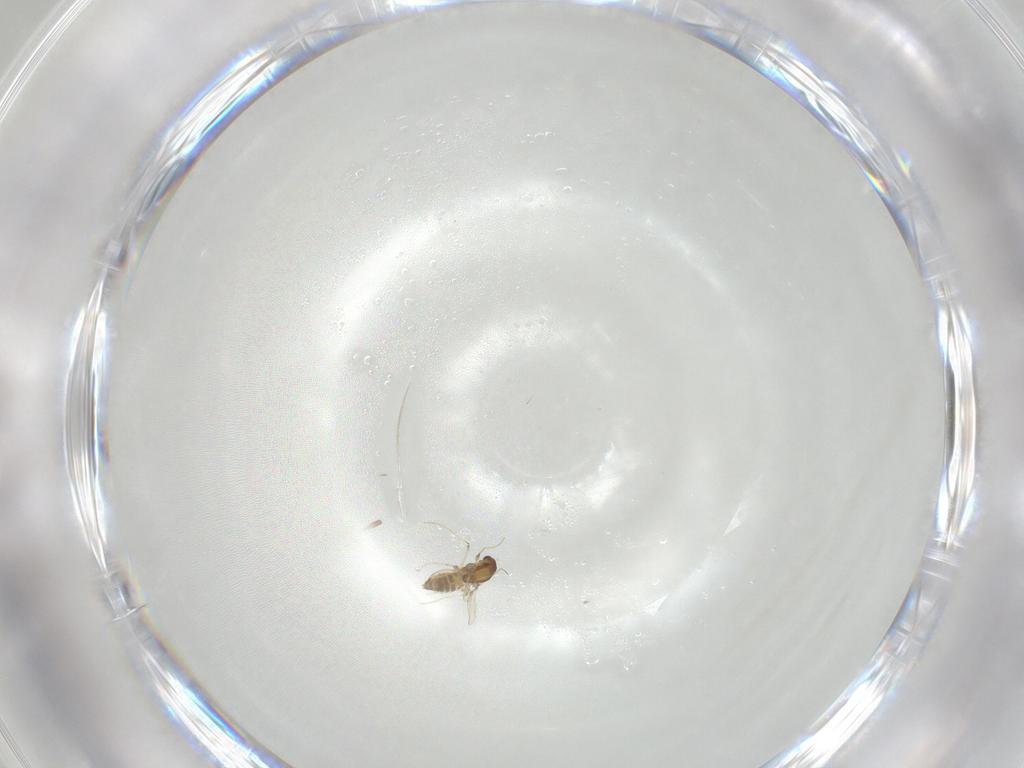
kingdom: Animalia
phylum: Arthropoda
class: Insecta
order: Diptera
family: Chironomidae
